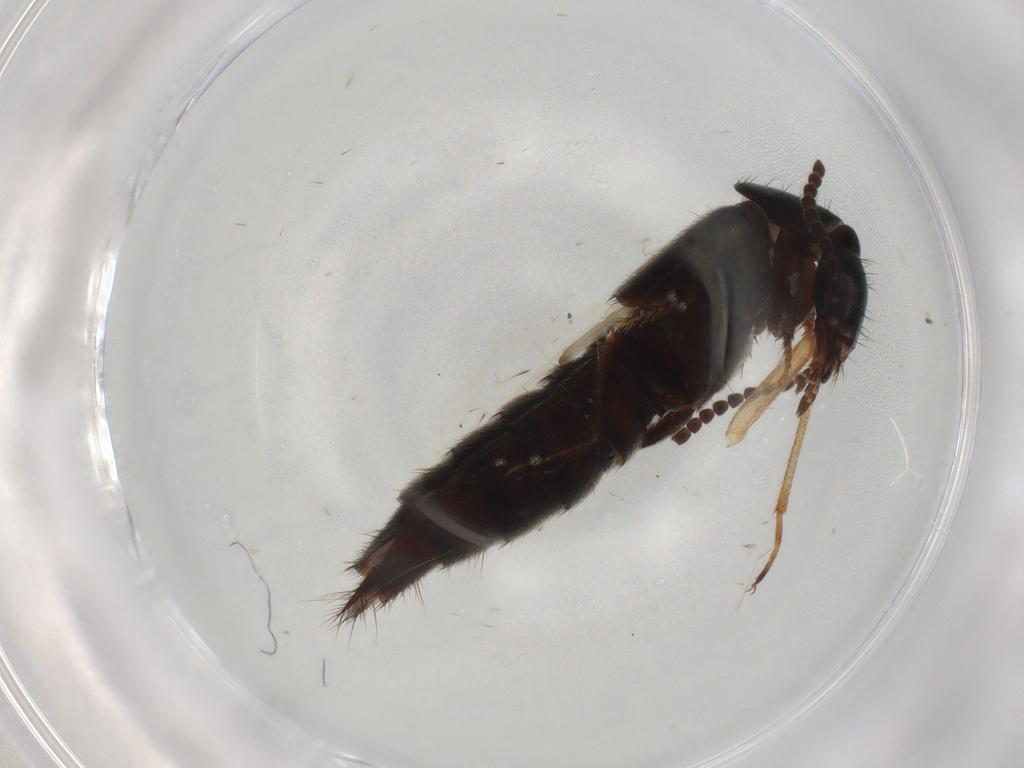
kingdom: Animalia
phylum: Arthropoda
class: Insecta
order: Coleoptera
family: Staphylinidae
